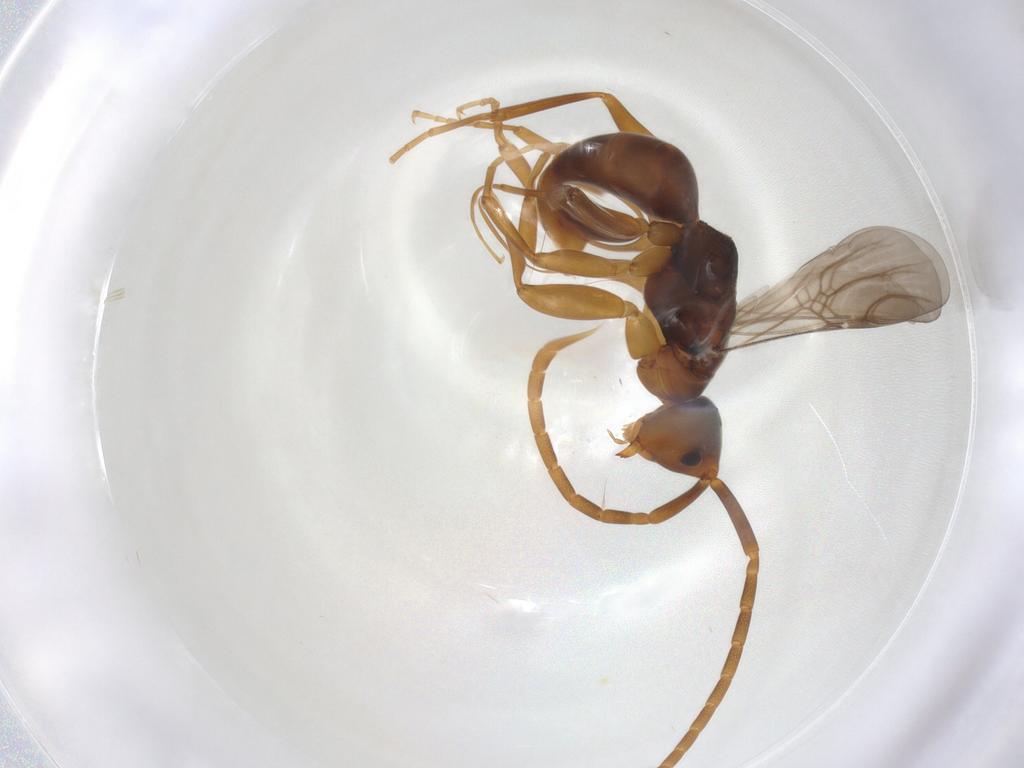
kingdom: Animalia
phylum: Arthropoda
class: Insecta
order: Hymenoptera
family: Embolemidae
